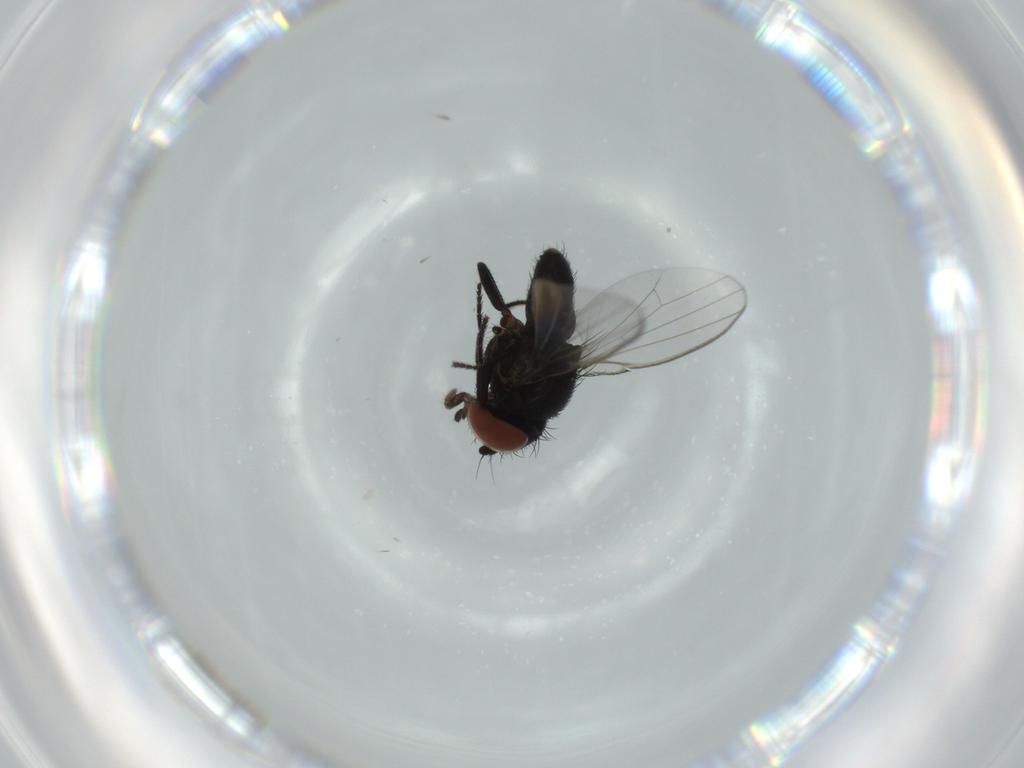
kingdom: Animalia
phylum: Arthropoda
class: Insecta
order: Diptera
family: Milichiidae
